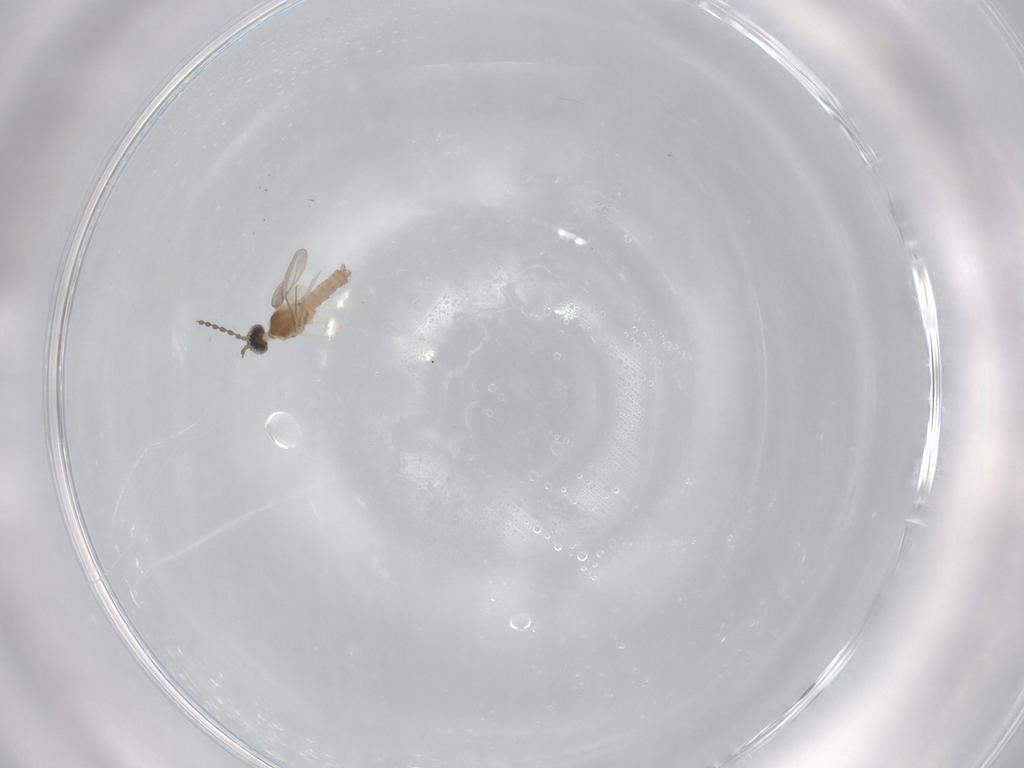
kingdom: Animalia
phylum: Arthropoda
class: Insecta
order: Diptera
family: Cecidomyiidae
